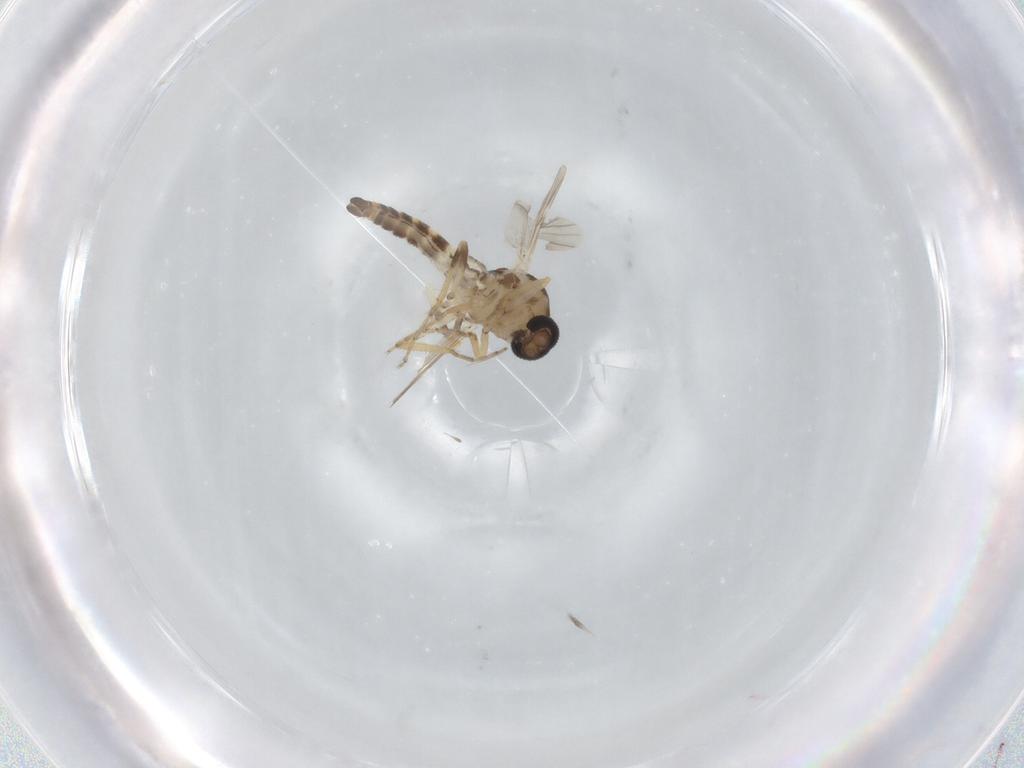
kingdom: Animalia
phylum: Arthropoda
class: Insecta
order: Diptera
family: Ceratopogonidae
